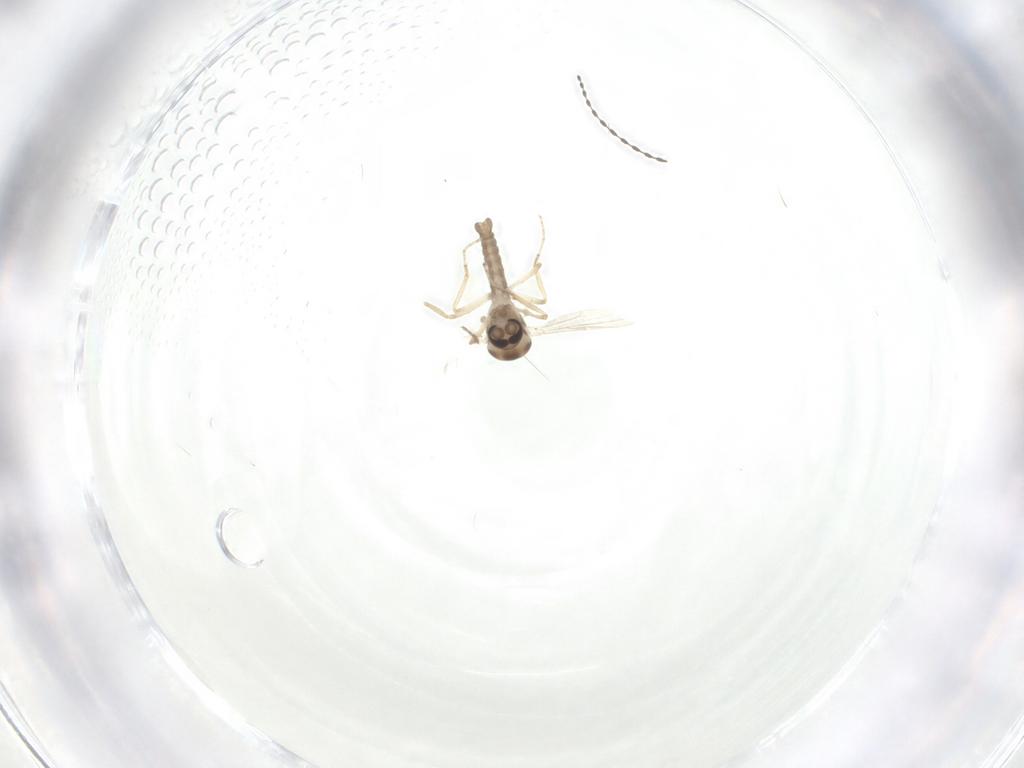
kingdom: Animalia
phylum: Arthropoda
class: Insecta
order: Diptera
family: Ceratopogonidae
